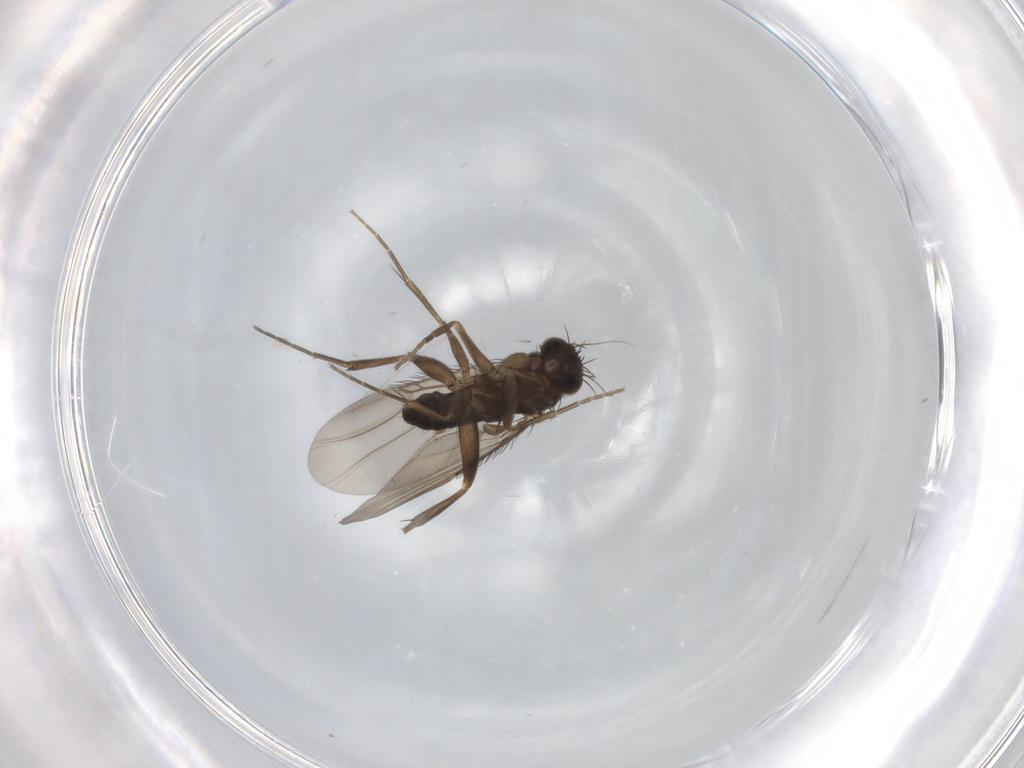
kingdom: Animalia
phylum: Arthropoda
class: Insecta
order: Diptera
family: Phoridae
